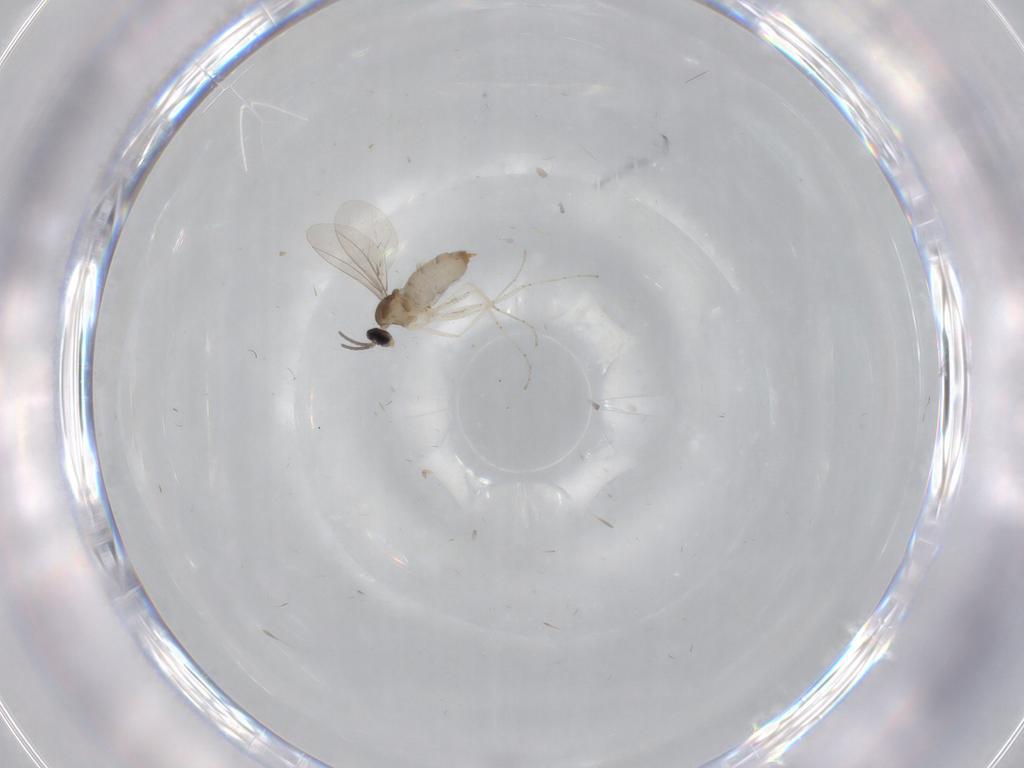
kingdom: Animalia
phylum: Arthropoda
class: Insecta
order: Diptera
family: Cecidomyiidae
